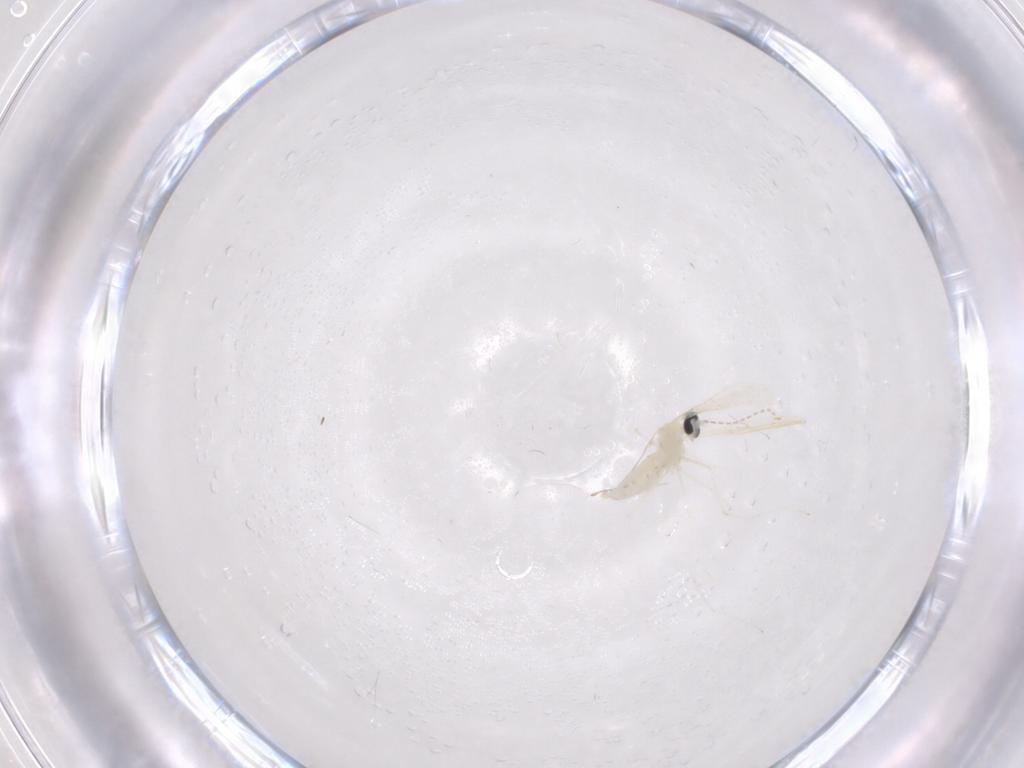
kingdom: Animalia
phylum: Arthropoda
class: Insecta
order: Diptera
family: Cecidomyiidae
